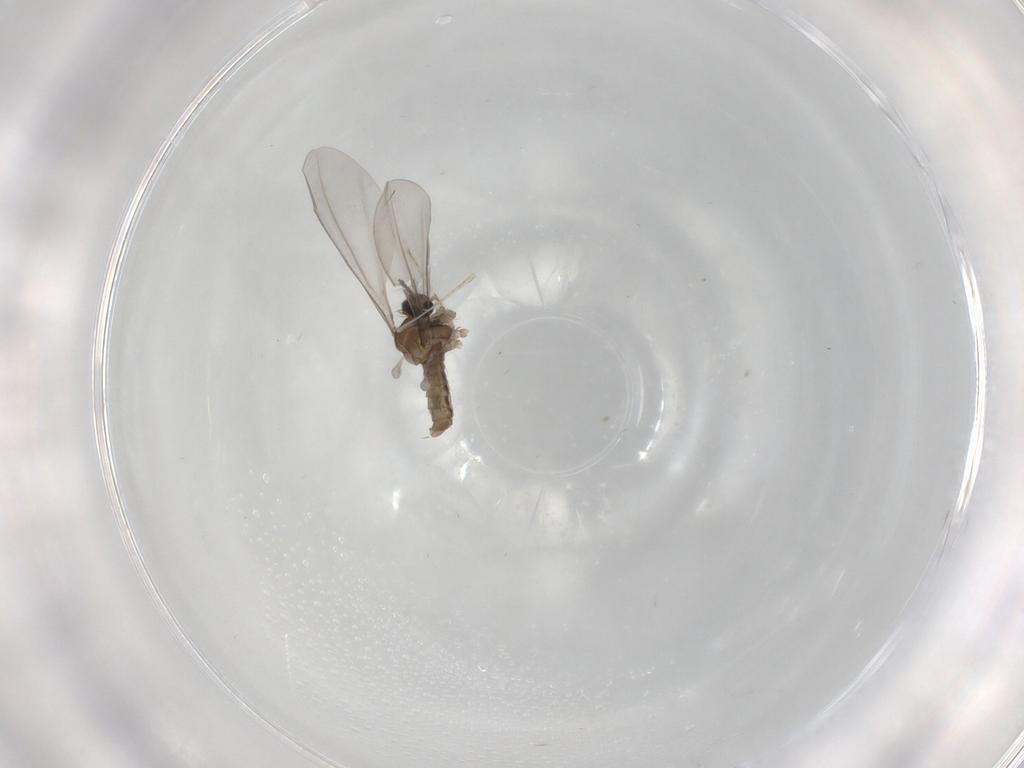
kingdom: Animalia
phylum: Arthropoda
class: Insecta
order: Diptera
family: Cecidomyiidae
